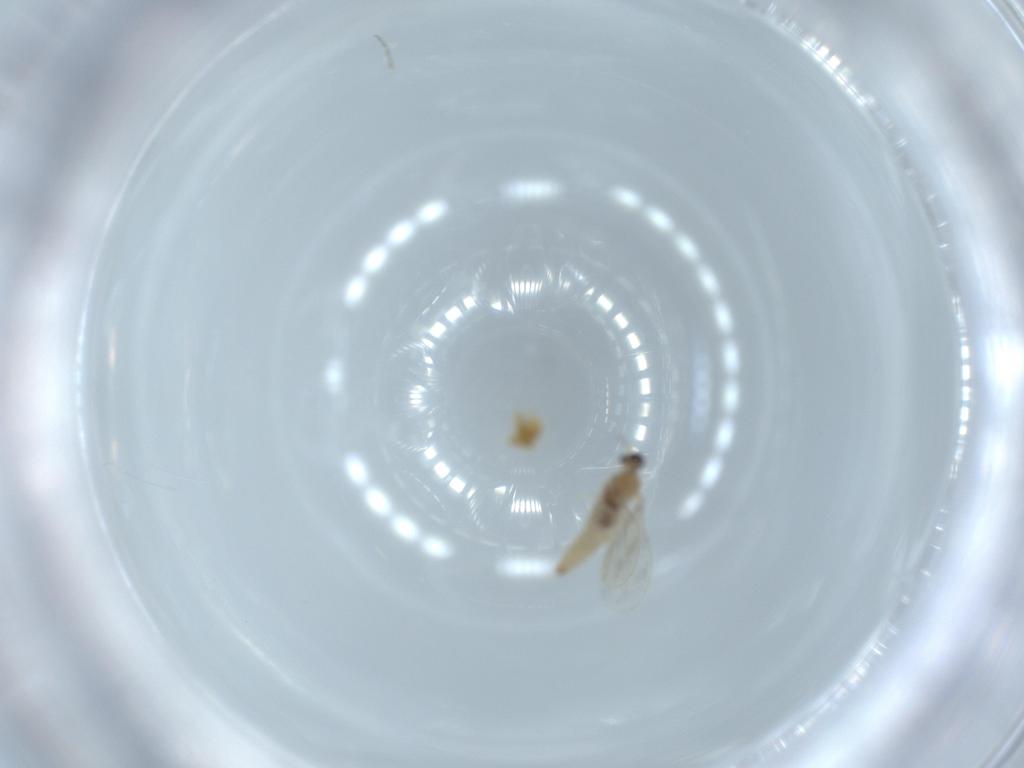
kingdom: Animalia
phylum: Arthropoda
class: Insecta
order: Diptera
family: Cecidomyiidae
